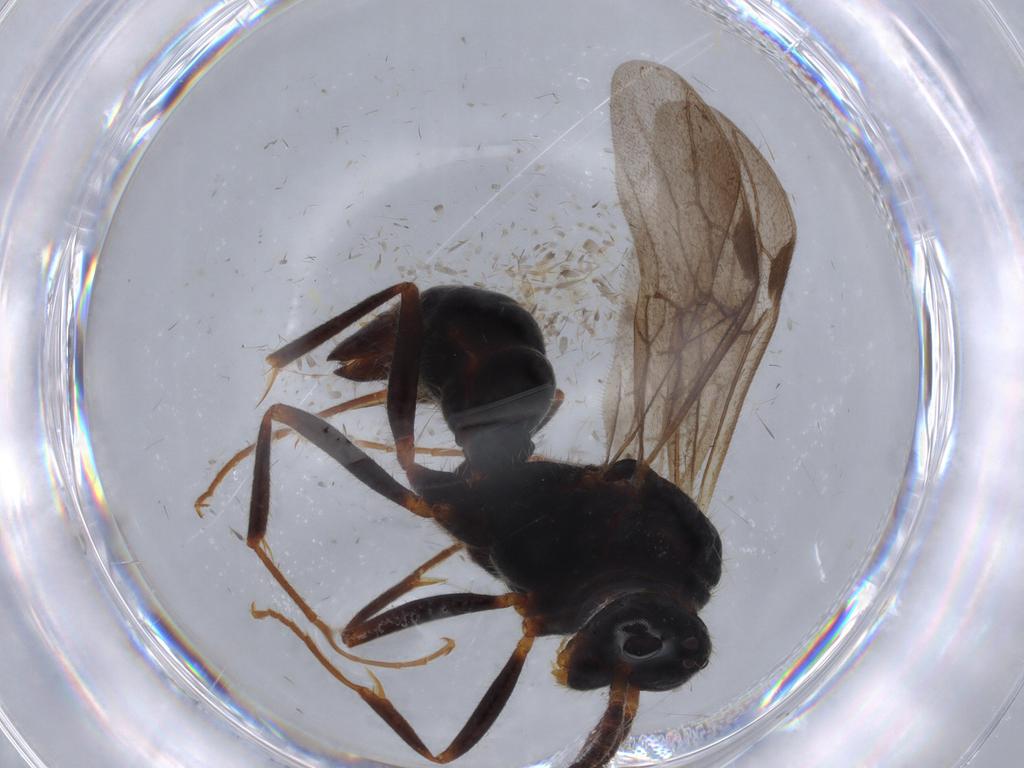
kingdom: Animalia
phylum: Arthropoda
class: Insecta
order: Hymenoptera
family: Formicidae
